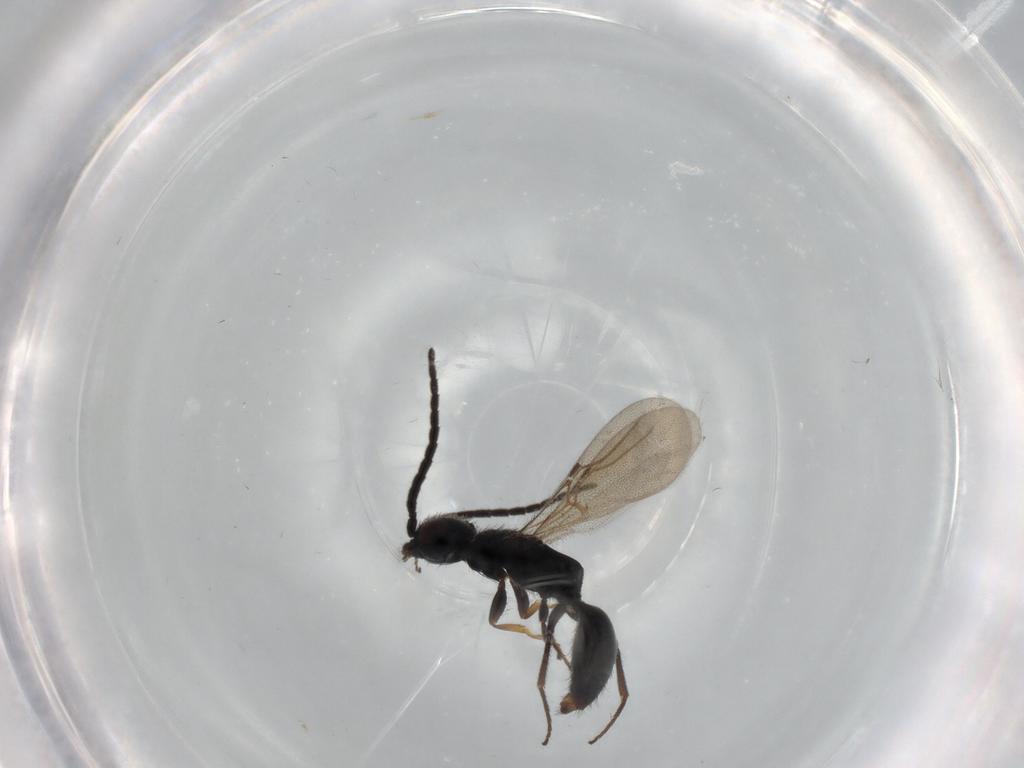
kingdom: Animalia
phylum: Arthropoda
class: Insecta
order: Hymenoptera
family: Bethylidae
